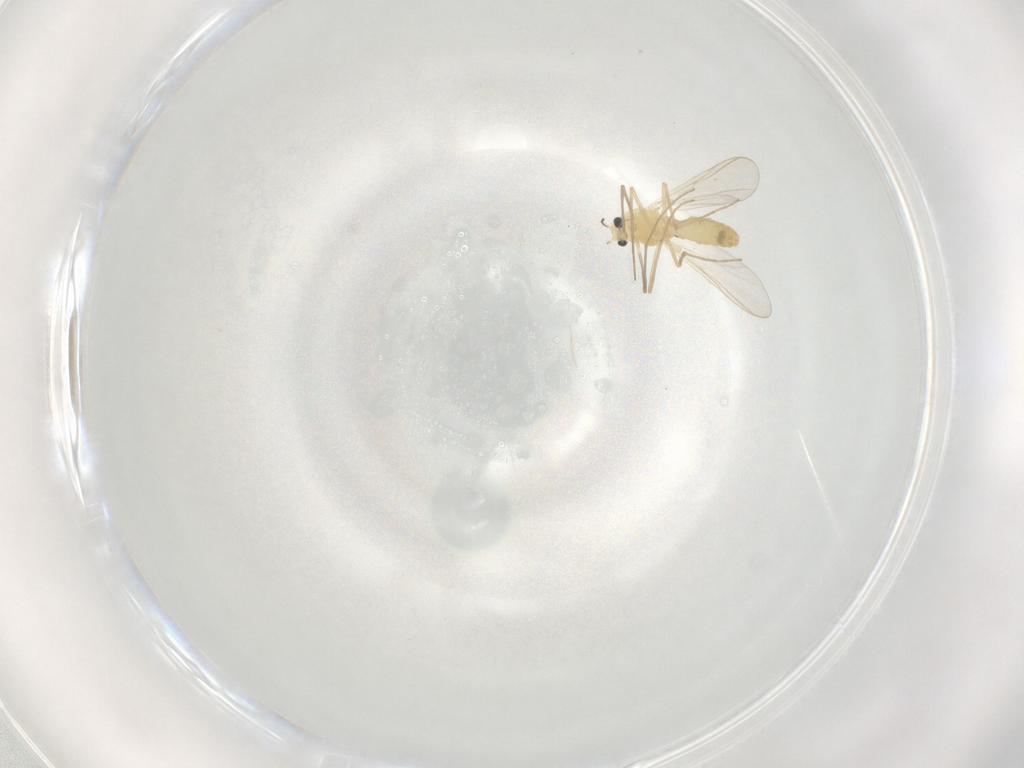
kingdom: Animalia
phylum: Arthropoda
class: Insecta
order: Diptera
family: Chironomidae
